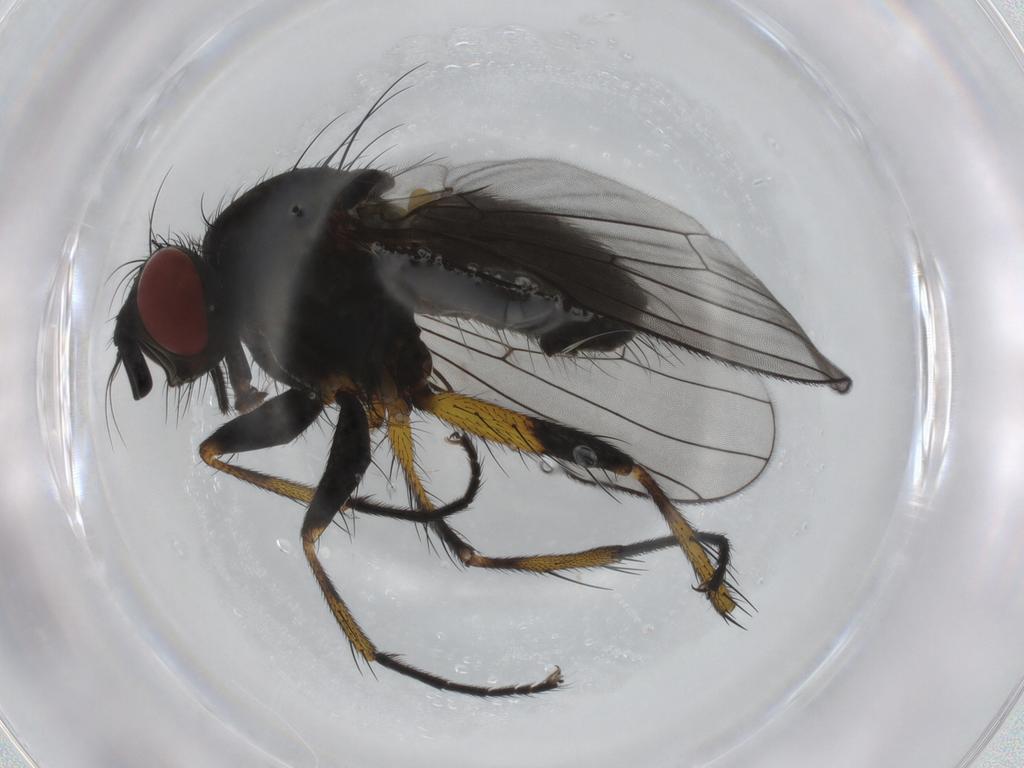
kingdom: Animalia
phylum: Arthropoda
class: Insecta
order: Diptera
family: Muscidae
